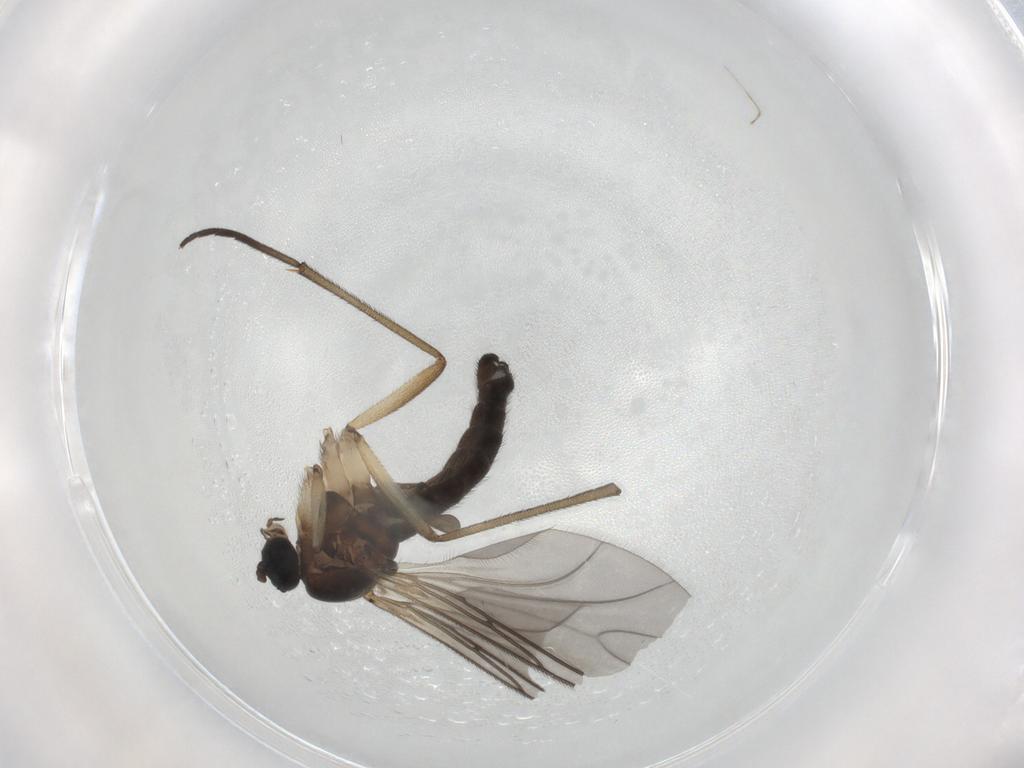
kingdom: Animalia
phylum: Arthropoda
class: Insecta
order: Diptera
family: Sciaridae
